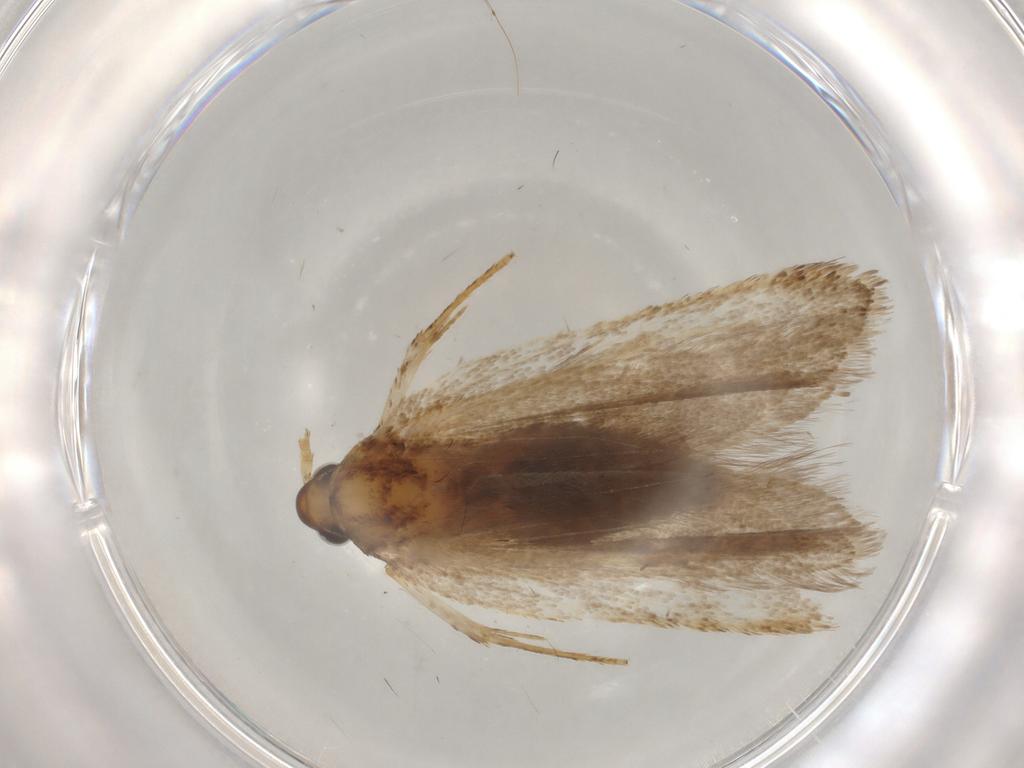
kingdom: Animalia
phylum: Arthropoda
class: Insecta
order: Lepidoptera
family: Lecithoceridae
